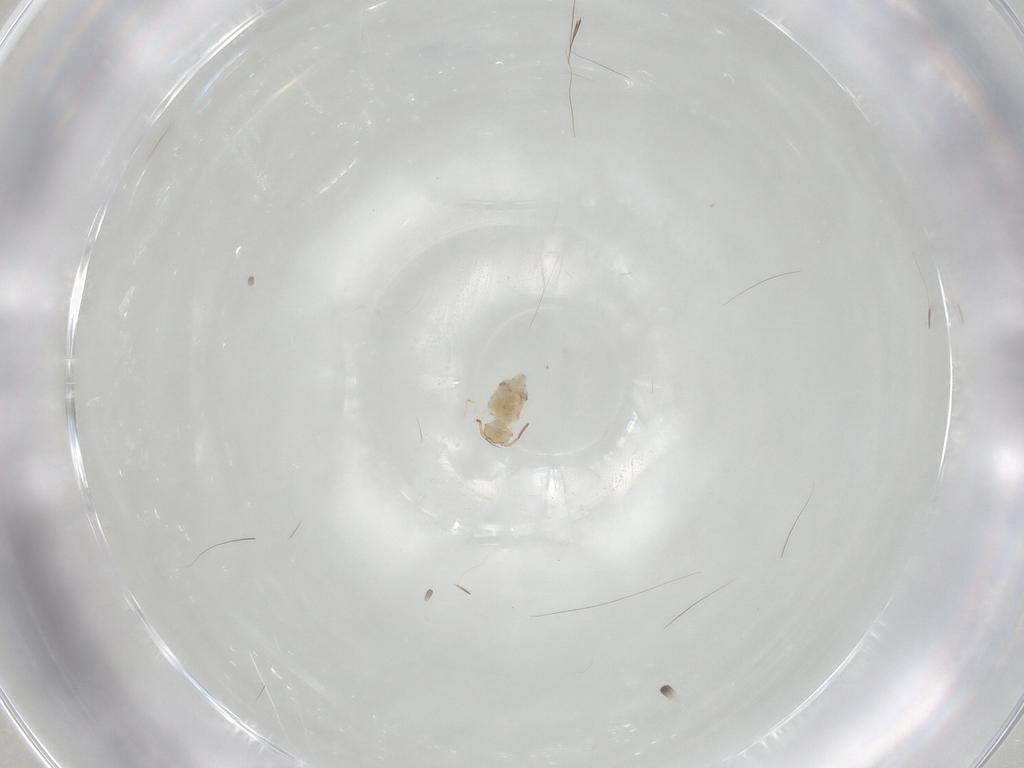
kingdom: Animalia
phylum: Arthropoda
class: Collembola
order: Symphypleona
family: Bourletiellidae
